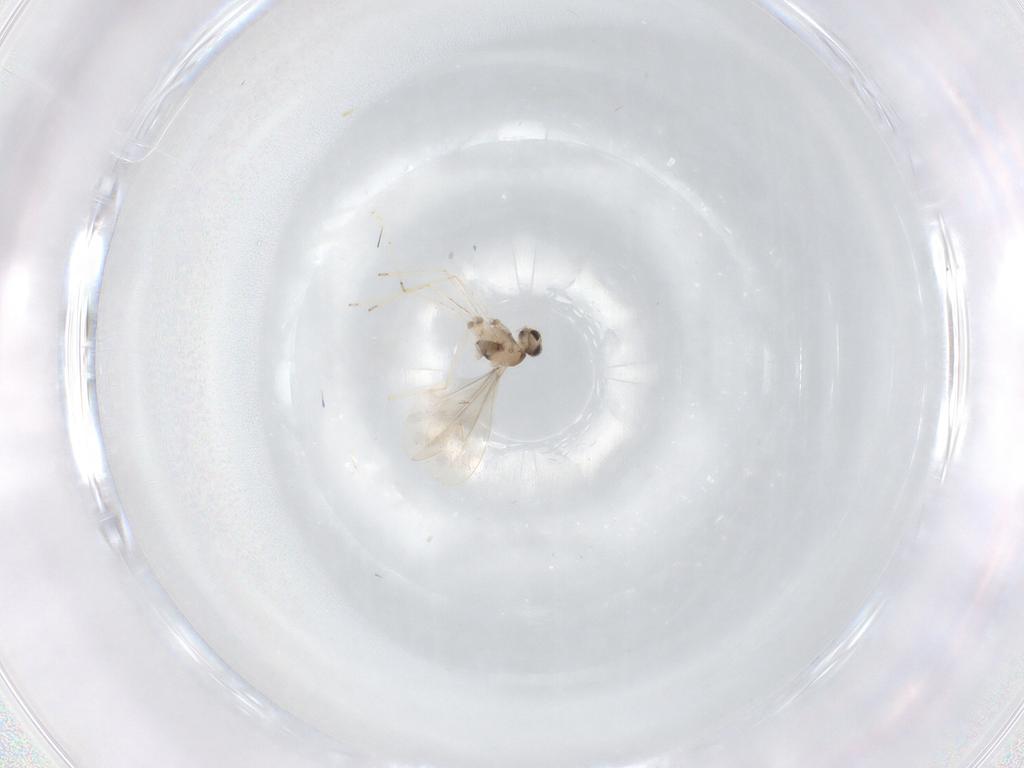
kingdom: Animalia
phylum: Arthropoda
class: Insecta
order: Diptera
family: Cecidomyiidae
